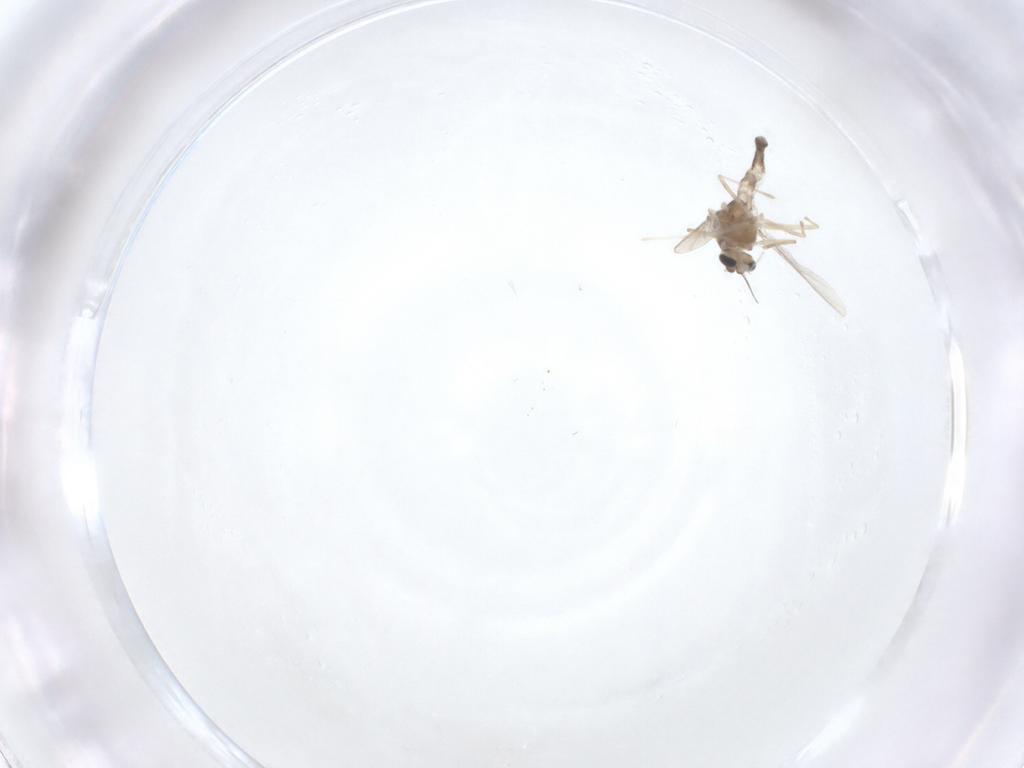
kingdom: Animalia
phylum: Arthropoda
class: Insecta
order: Diptera
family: Chironomidae
